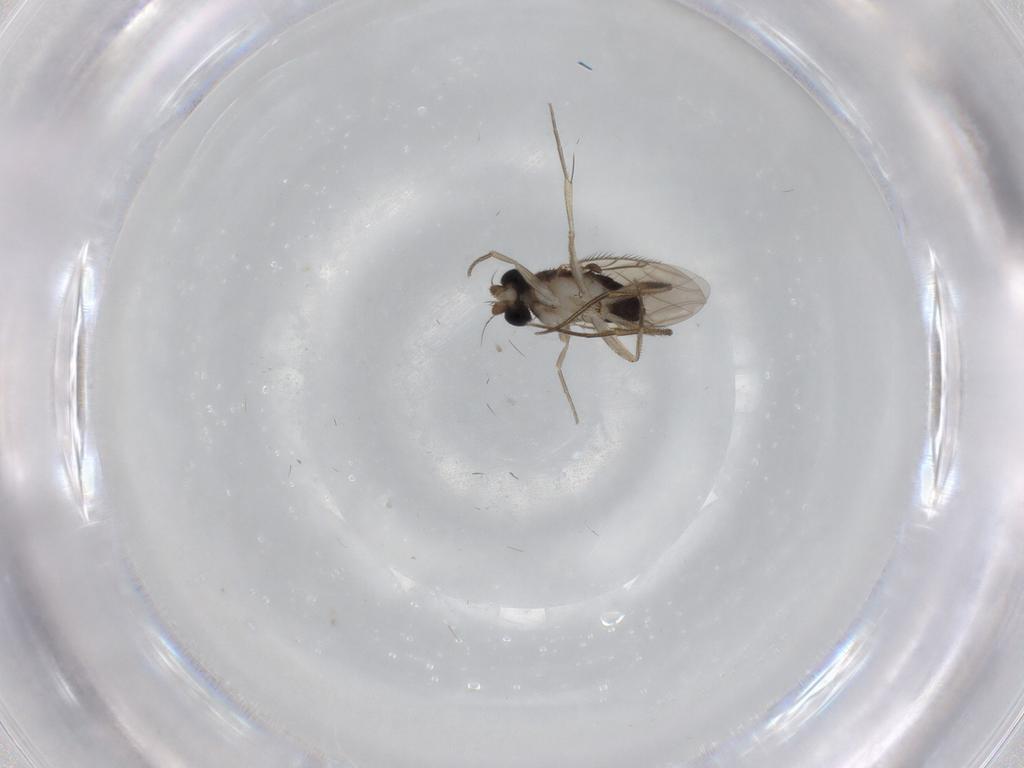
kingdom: Animalia
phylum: Arthropoda
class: Insecta
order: Diptera
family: Phoridae
